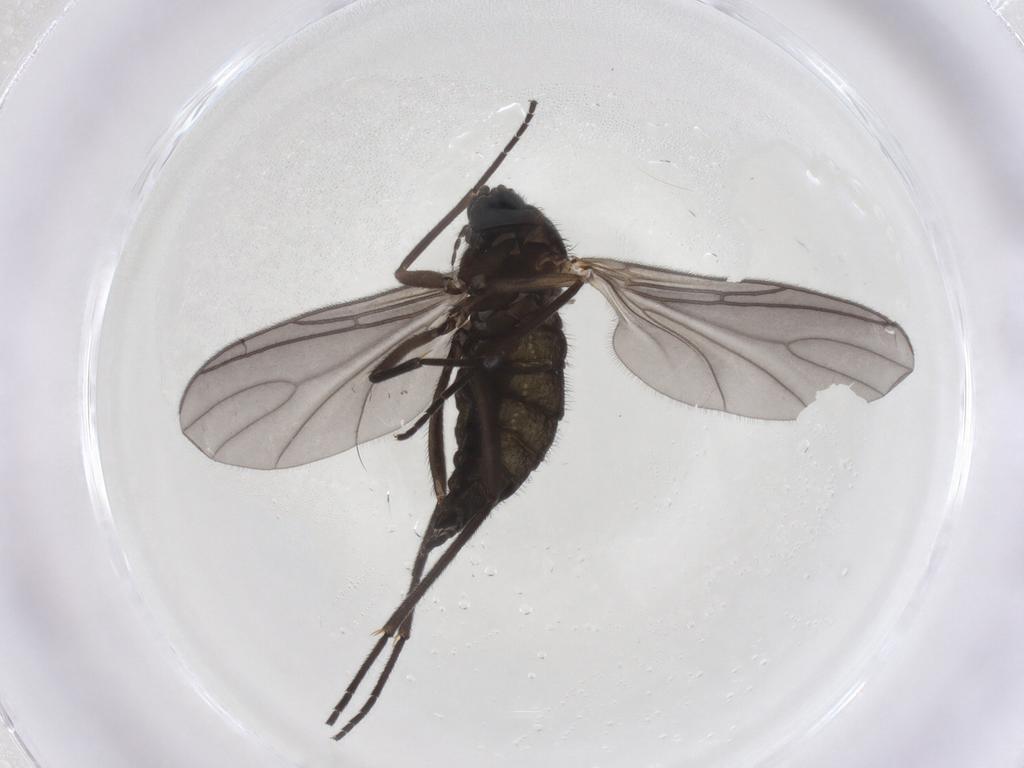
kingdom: Animalia
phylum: Arthropoda
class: Insecta
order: Diptera
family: Sciaridae
